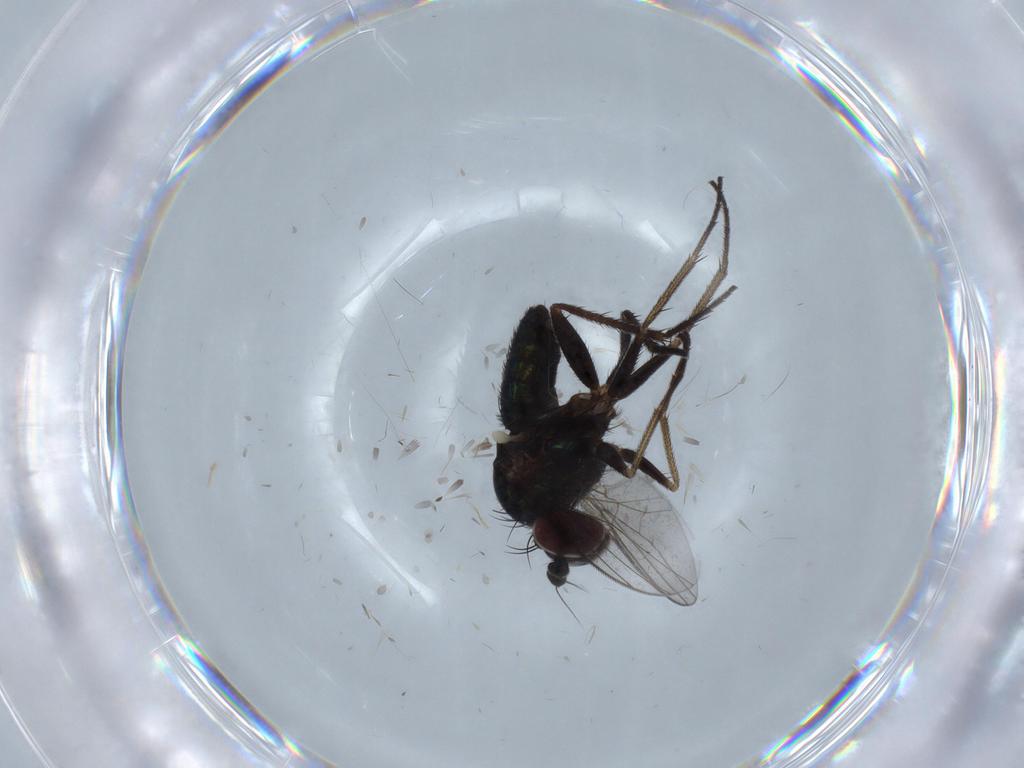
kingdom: Animalia
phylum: Arthropoda
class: Insecta
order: Diptera
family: Dolichopodidae
